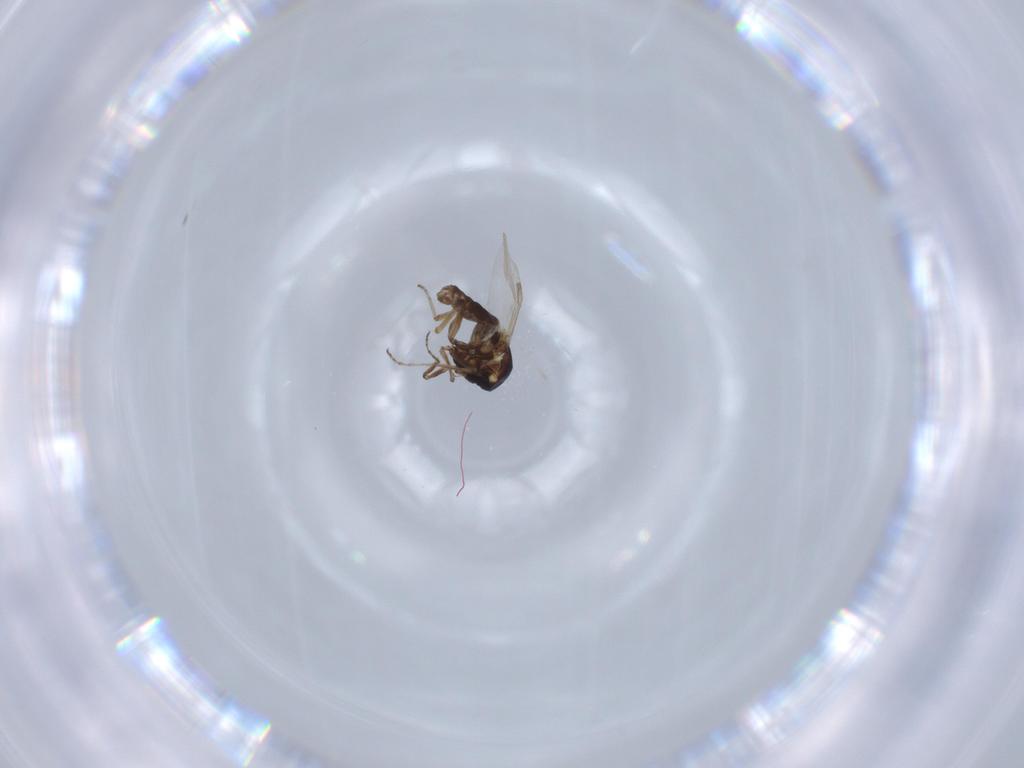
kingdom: Animalia
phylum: Arthropoda
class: Insecta
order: Diptera
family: Ceratopogonidae
